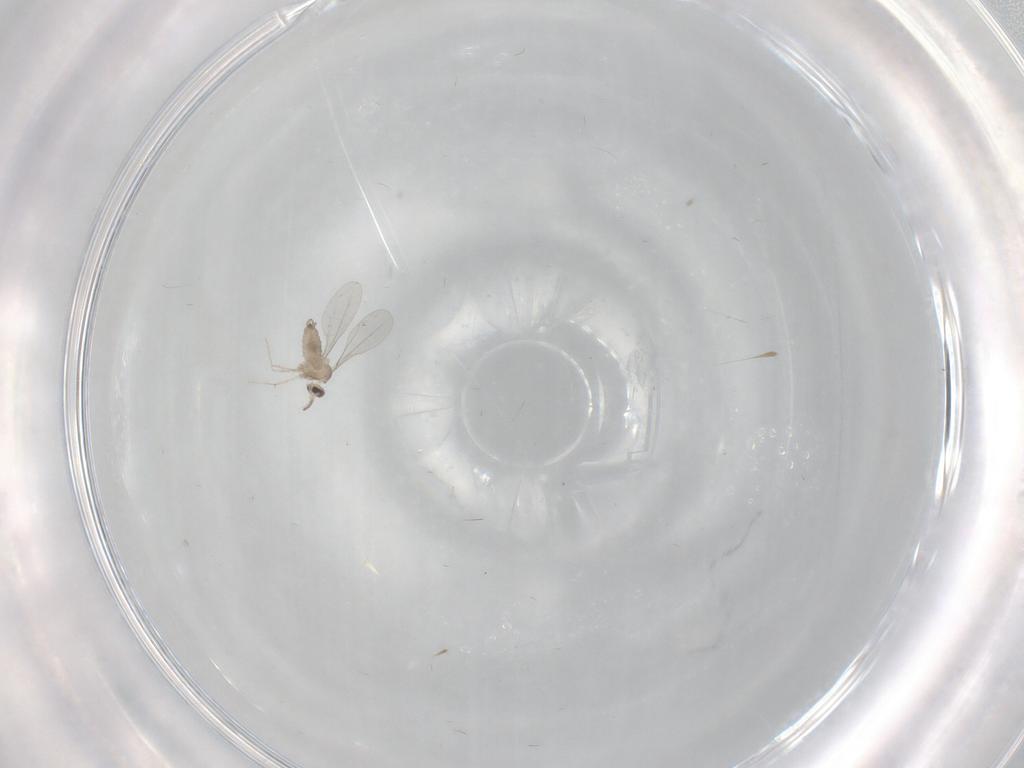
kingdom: Animalia
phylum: Arthropoda
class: Insecta
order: Diptera
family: Cecidomyiidae
